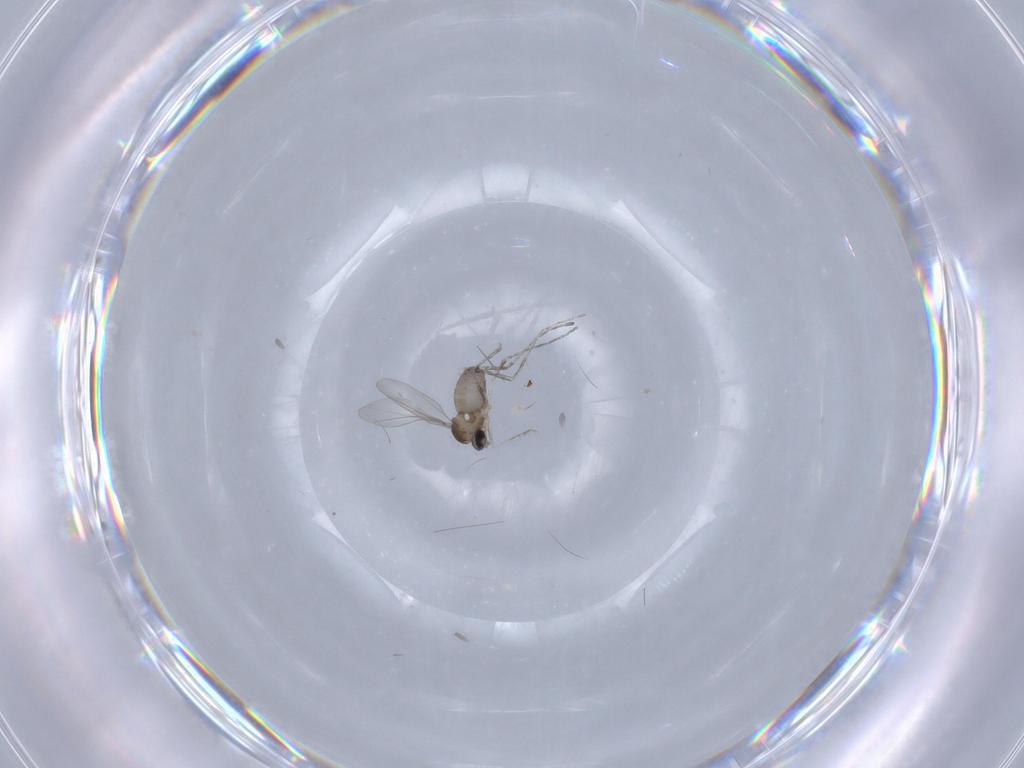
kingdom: Animalia
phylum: Arthropoda
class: Insecta
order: Diptera
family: Cecidomyiidae
